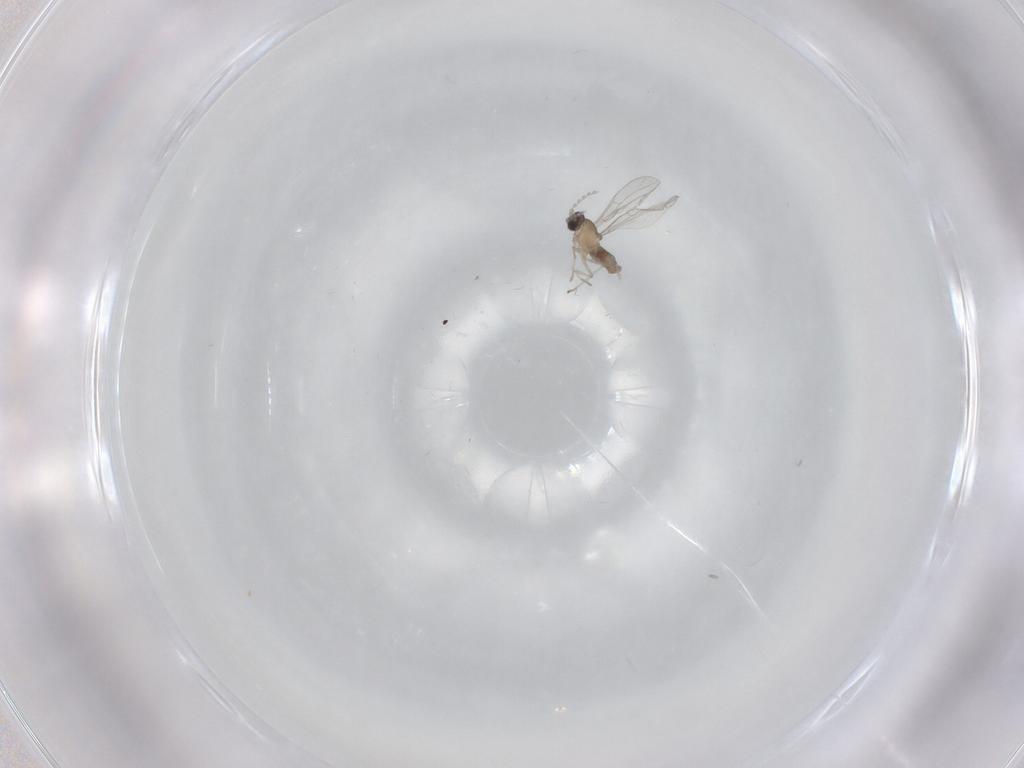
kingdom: Animalia
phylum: Arthropoda
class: Insecta
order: Diptera
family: Cecidomyiidae
